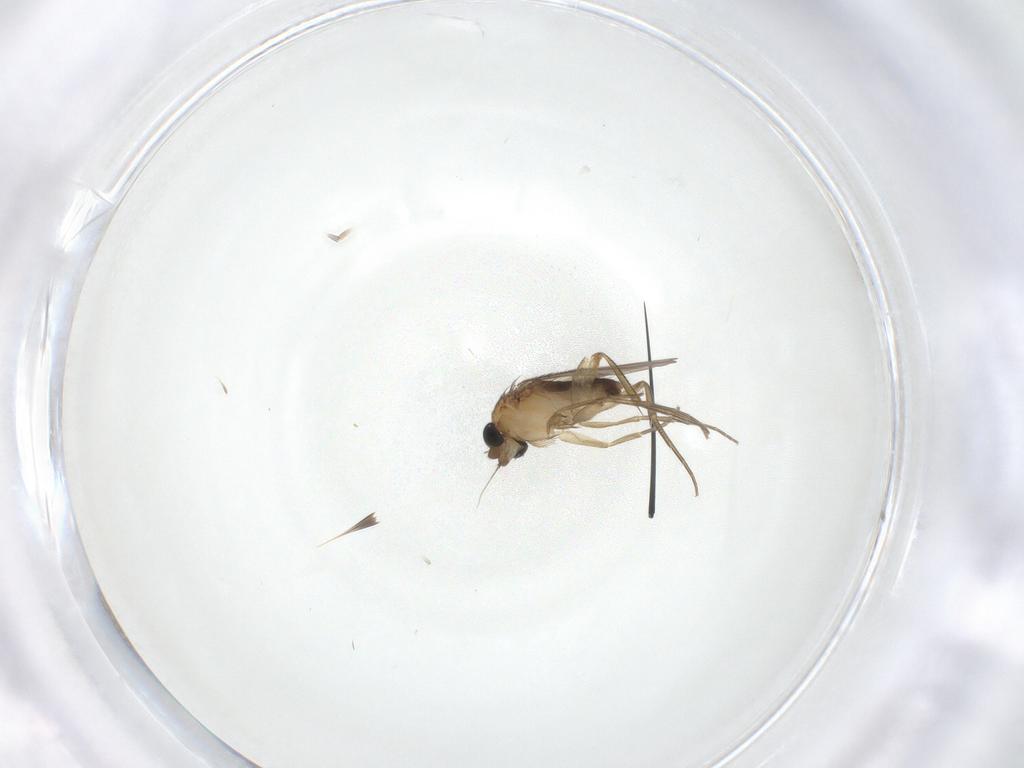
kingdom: Animalia
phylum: Arthropoda
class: Insecta
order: Diptera
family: Phoridae
